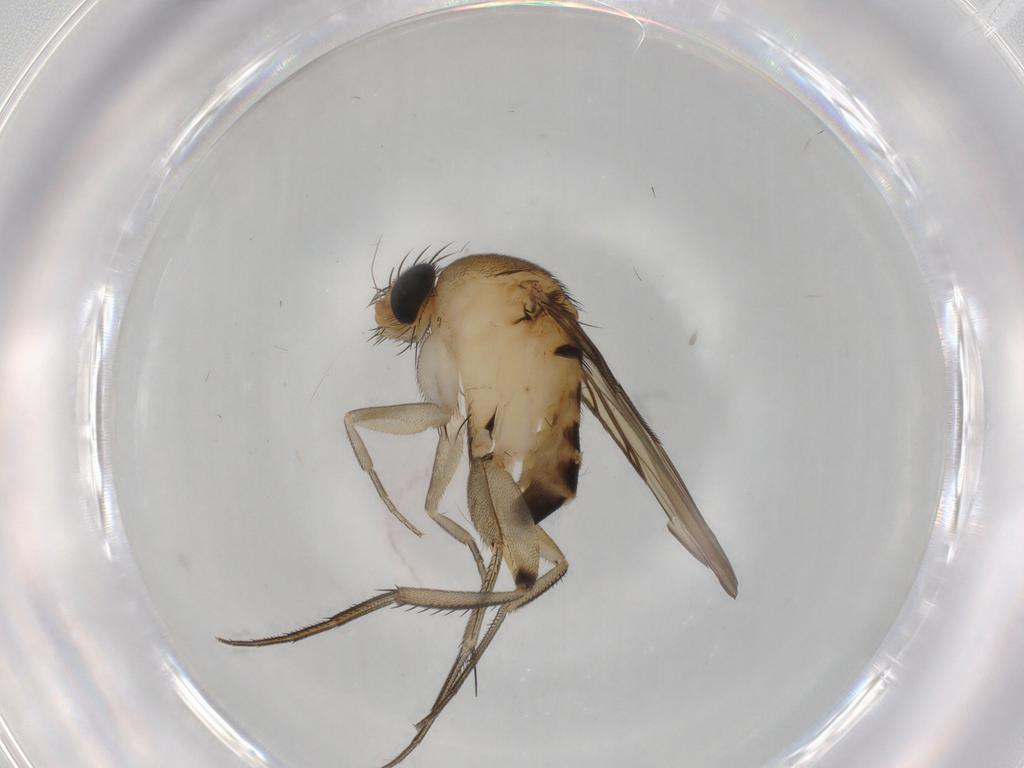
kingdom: Animalia
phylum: Arthropoda
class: Insecta
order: Diptera
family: Phoridae
